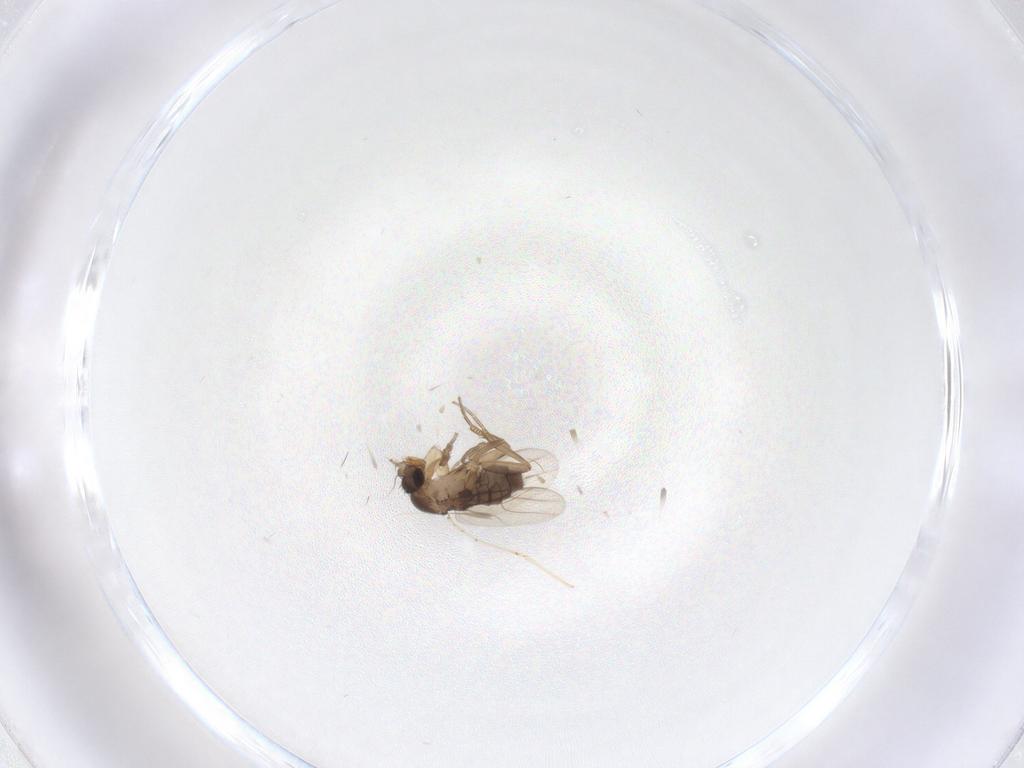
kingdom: Animalia
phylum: Arthropoda
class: Insecta
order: Diptera
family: Phoridae
